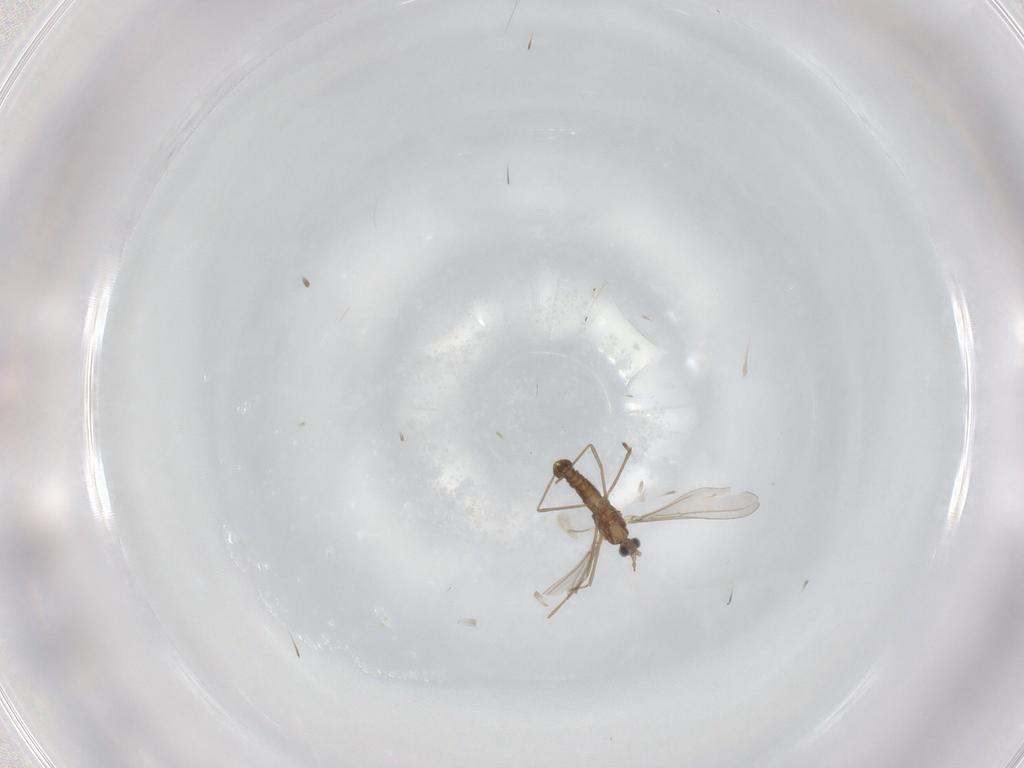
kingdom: Animalia
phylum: Arthropoda
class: Insecta
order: Diptera
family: Cecidomyiidae
